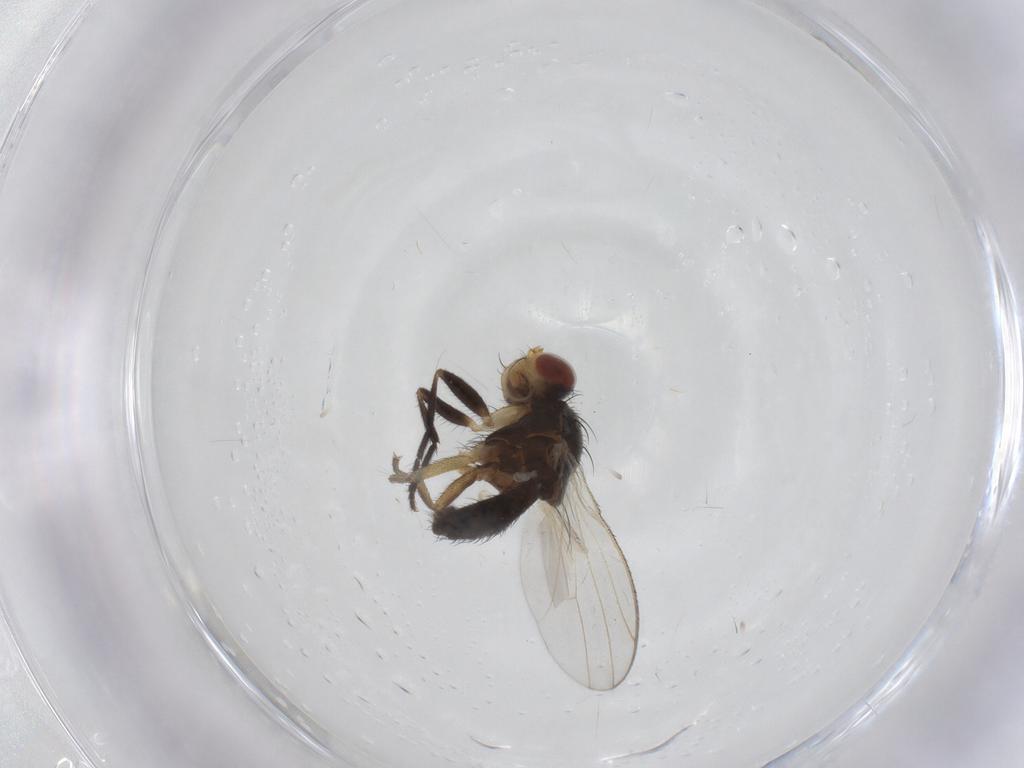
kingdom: Animalia
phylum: Arthropoda
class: Insecta
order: Diptera
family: Heleomyzidae
